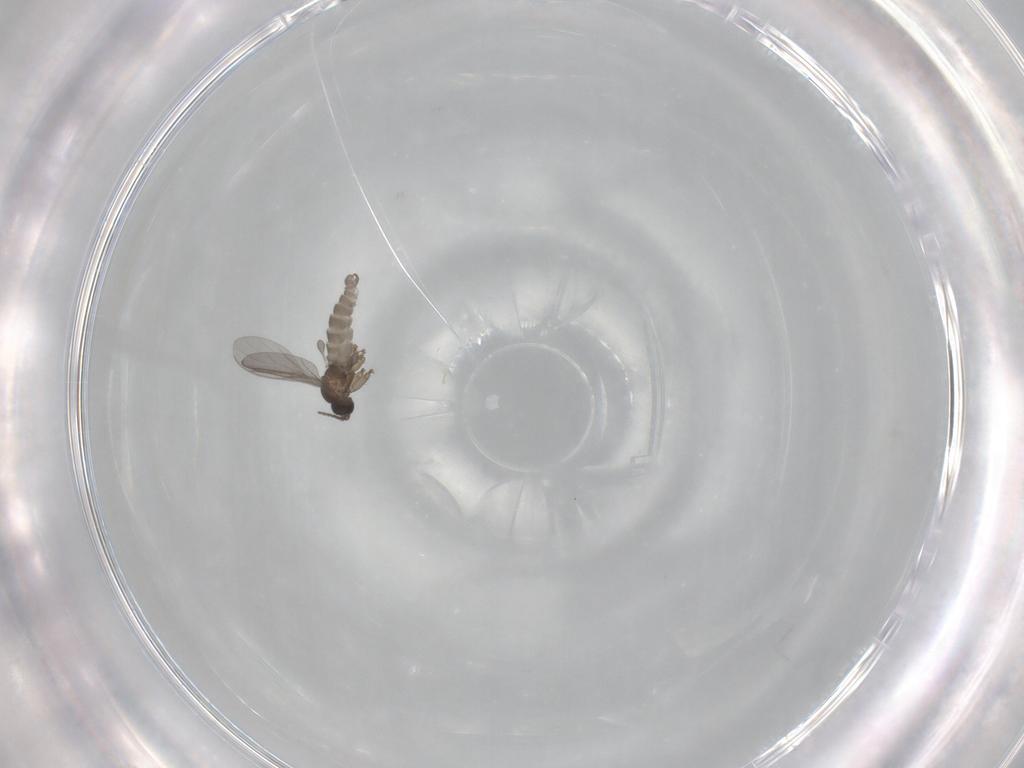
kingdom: Animalia
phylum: Arthropoda
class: Insecta
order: Diptera
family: Sciaridae
